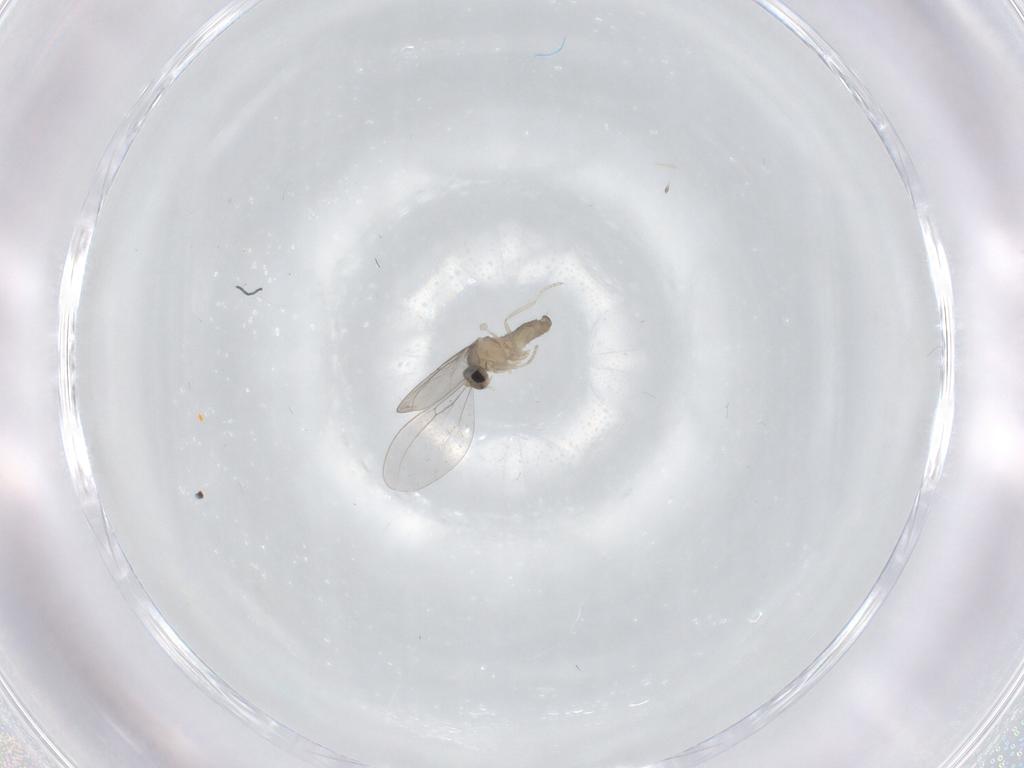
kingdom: Animalia
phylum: Arthropoda
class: Insecta
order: Diptera
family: Cecidomyiidae
